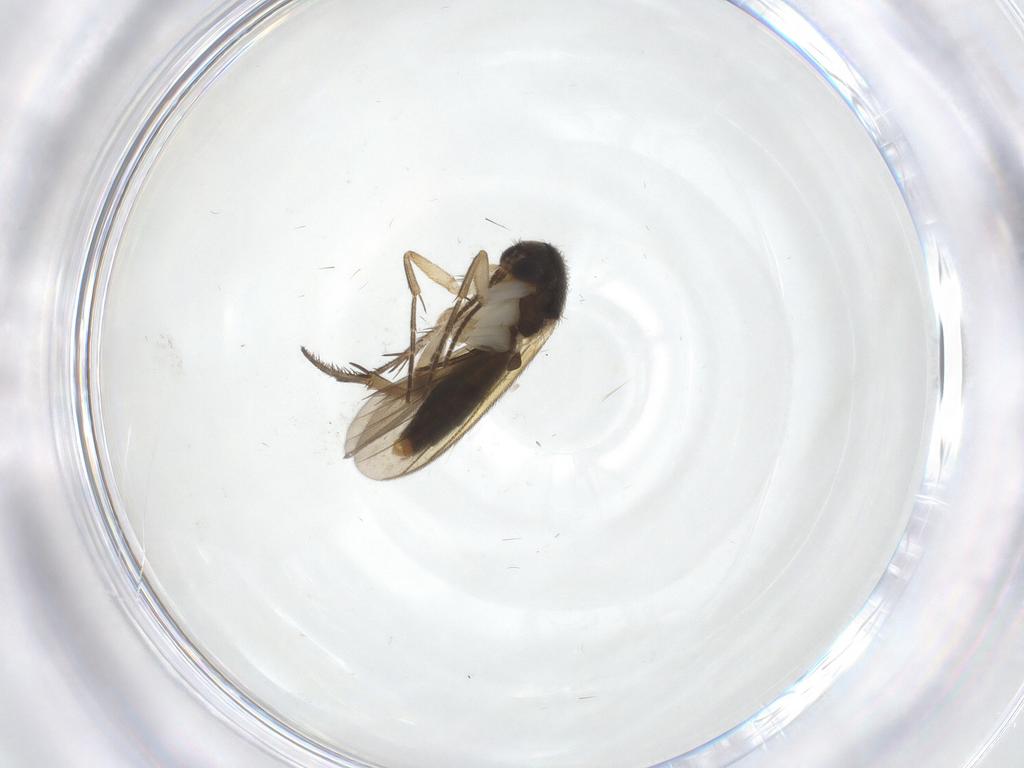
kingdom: Animalia
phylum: Arthropoda
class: Insecta
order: Diptera
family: Mycetophilidae
